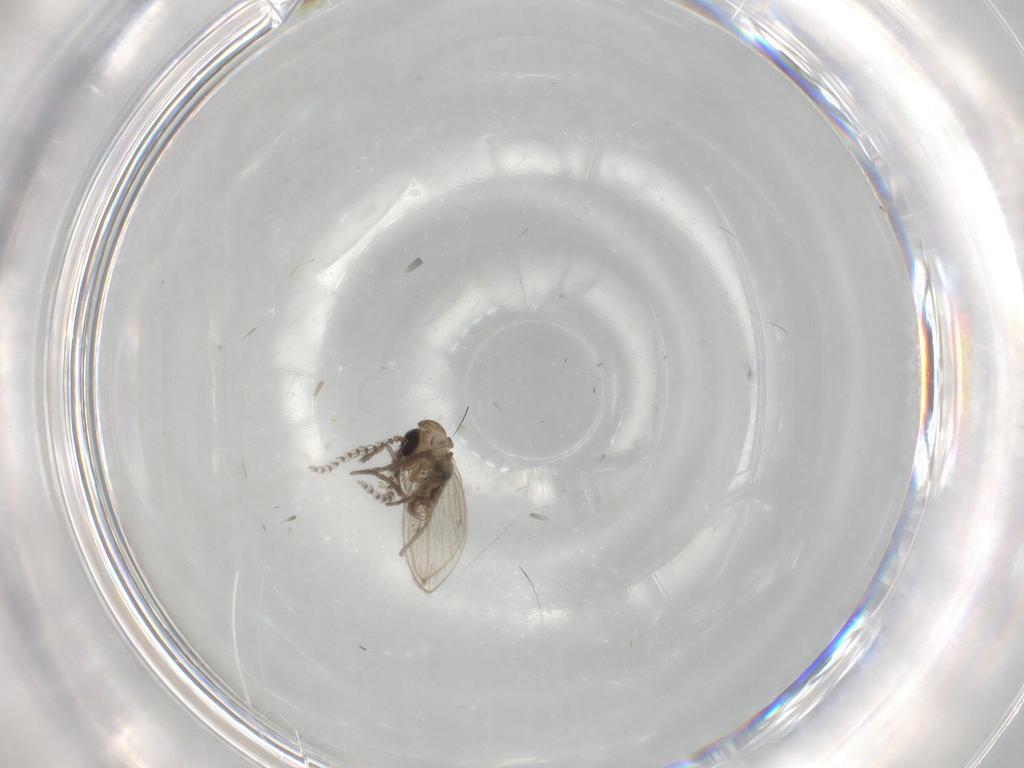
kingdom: Animalia
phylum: Arthropoda
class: Insecta
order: Diptera
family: Psychodidae
